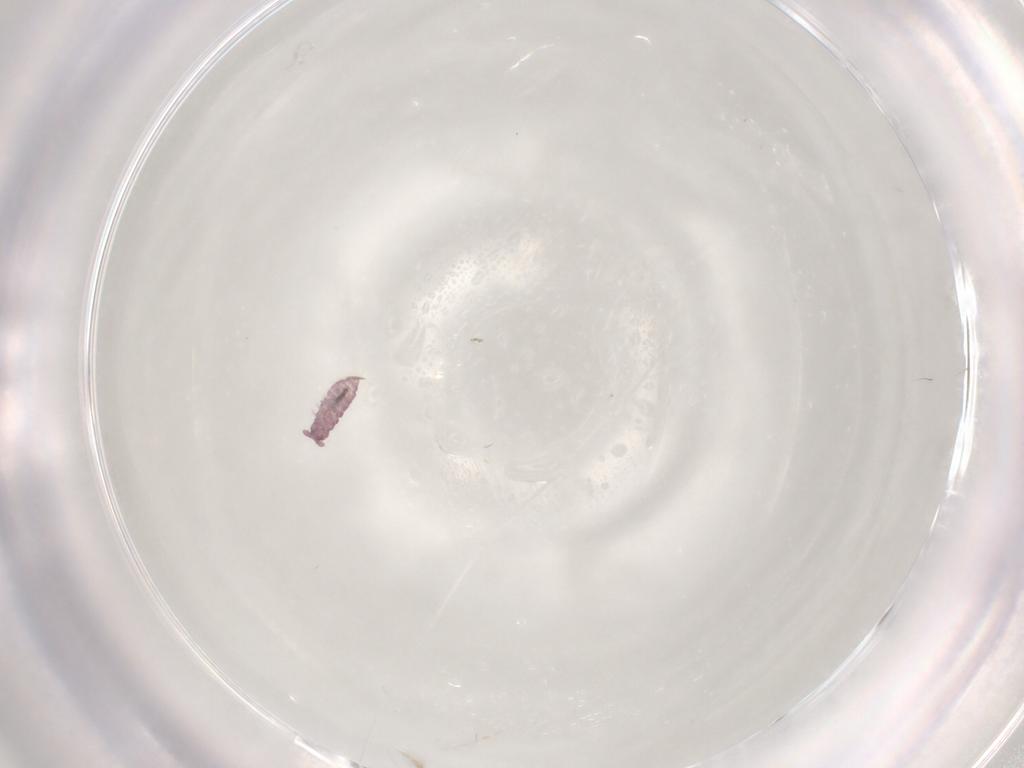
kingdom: Animalia
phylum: Arthropoda
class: Collembola
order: Poduromorpha
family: Hypogastruridae
